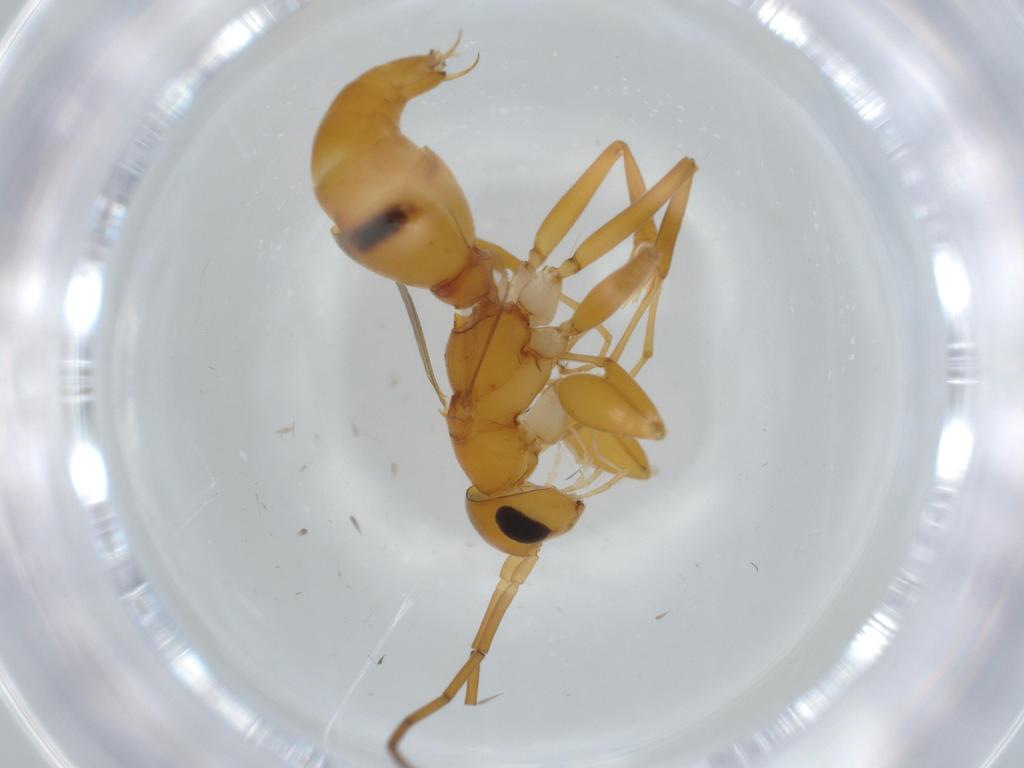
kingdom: Animalia
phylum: Arthropoda
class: Insecta
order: Hymenoptera
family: Rhopalosomatidae
